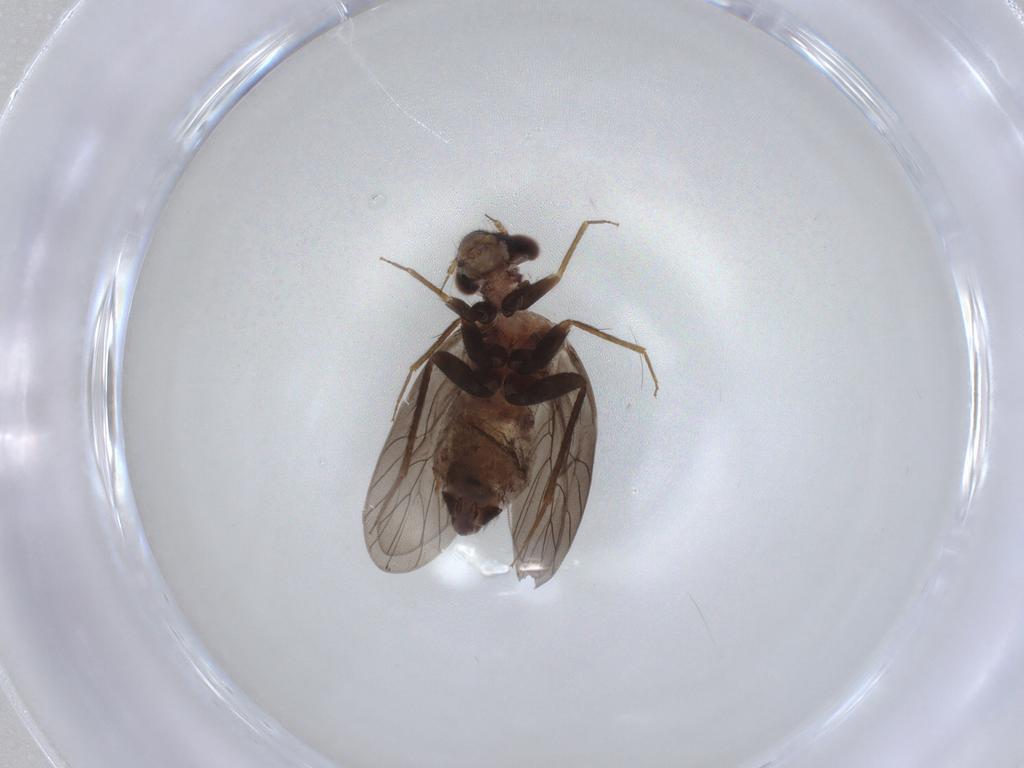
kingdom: Animalia
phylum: Arthropoda
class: Insecta
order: Psocodea
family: Lepidopsocidae
